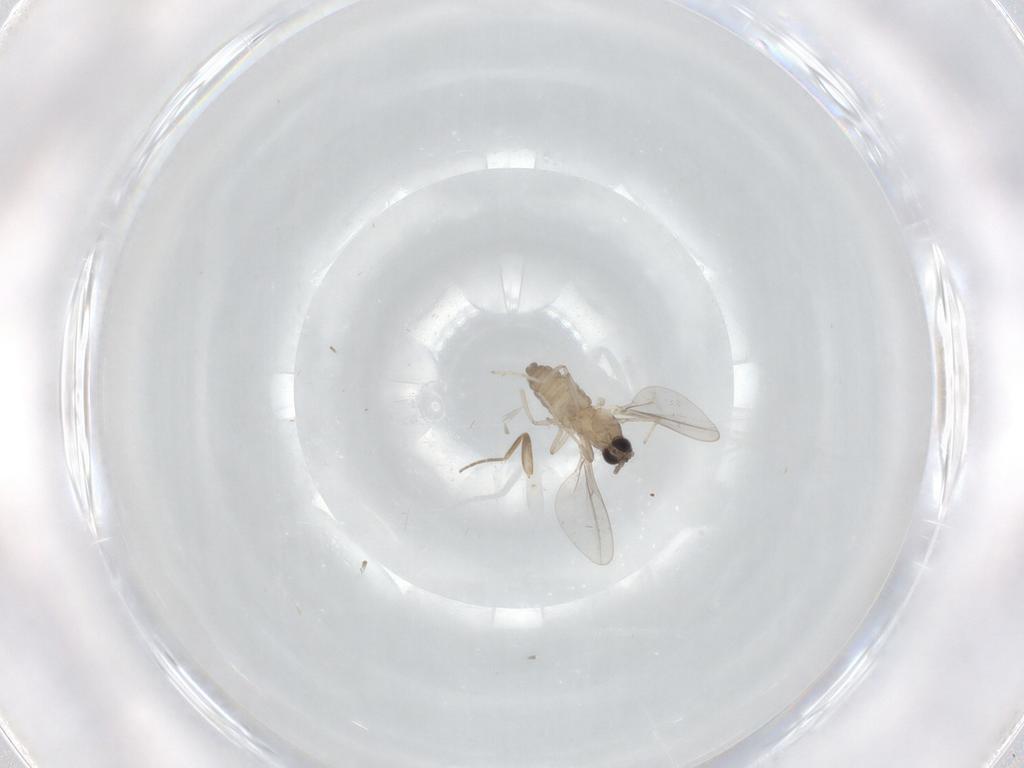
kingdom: Animalia
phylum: Arthropoda
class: Insecta
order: Diptera
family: Cecidomyiidae
